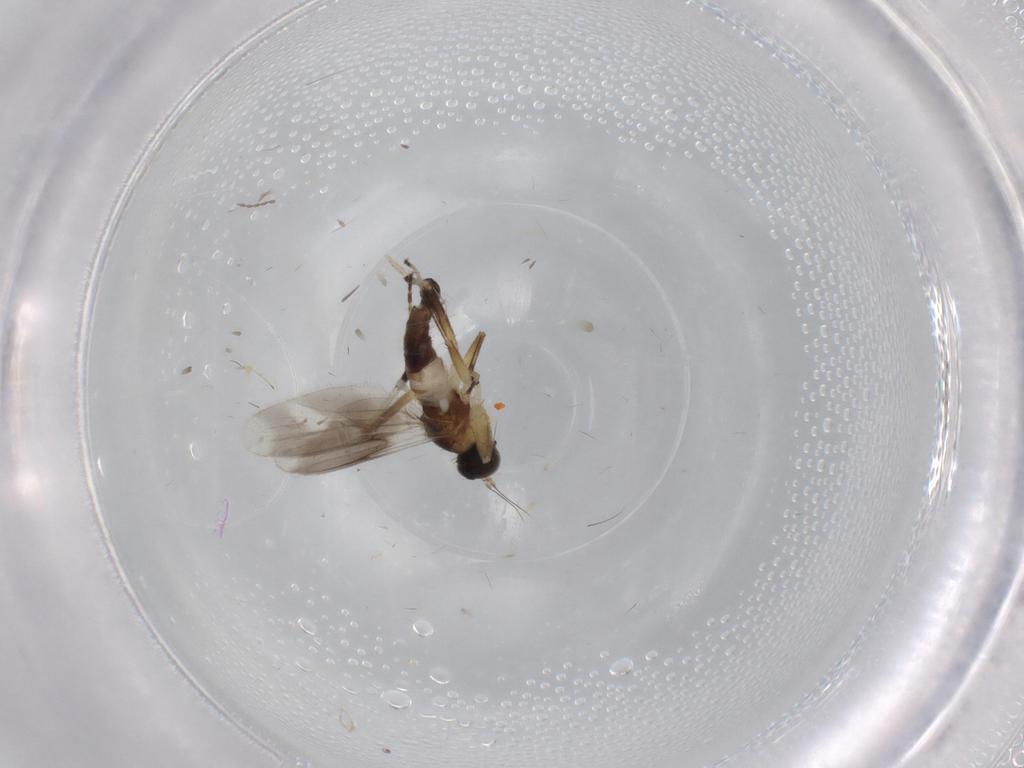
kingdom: Animalia
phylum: Arthropoda
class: Insecta
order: Diptera
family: Hybotidae
